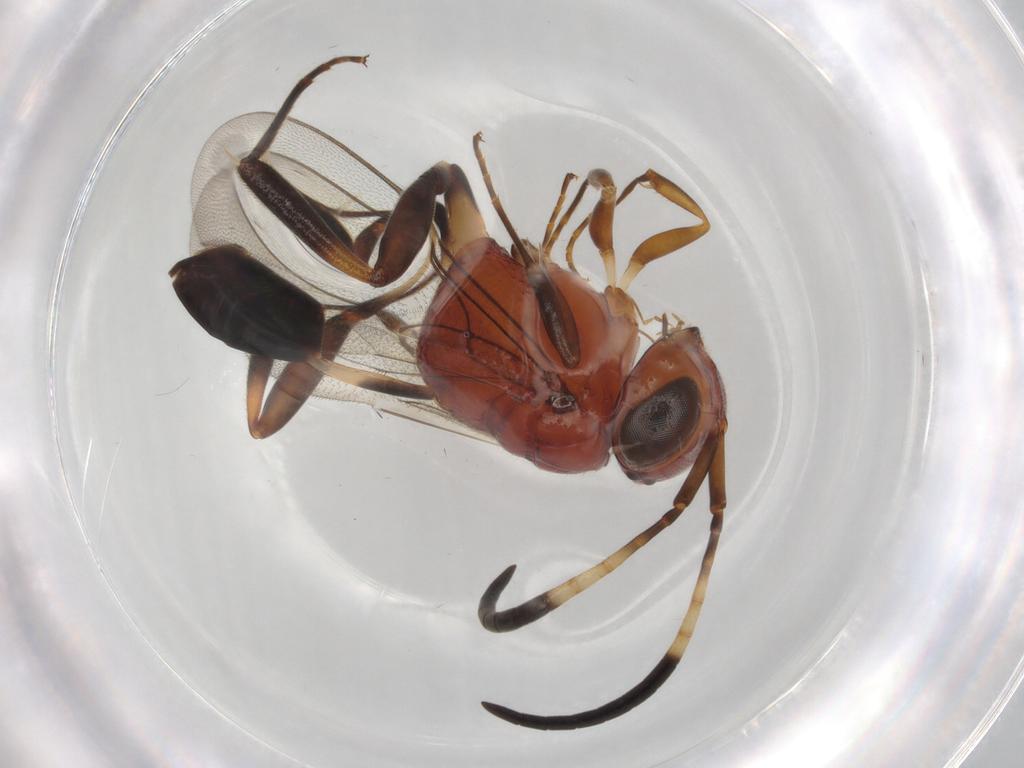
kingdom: Animalia
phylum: Arthropoda
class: Insecta
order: Hymenoptera
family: Evaniidae
